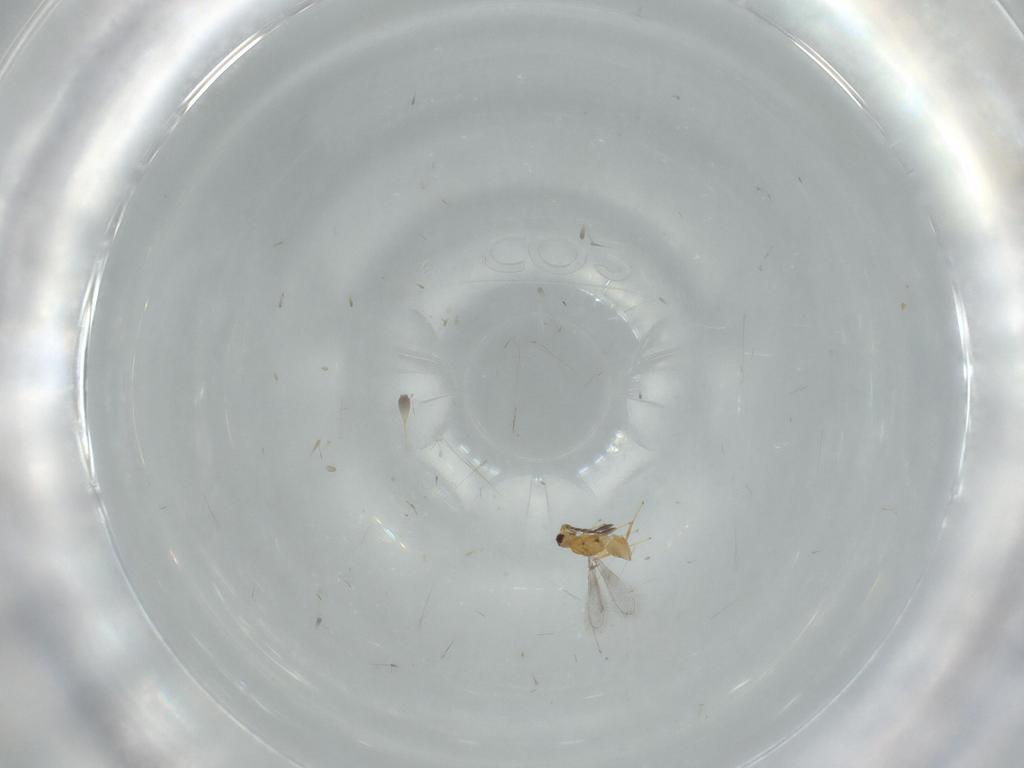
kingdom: Animalia
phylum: Arthropoda
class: Insecta
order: Hymenoptera
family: Mymaridae
